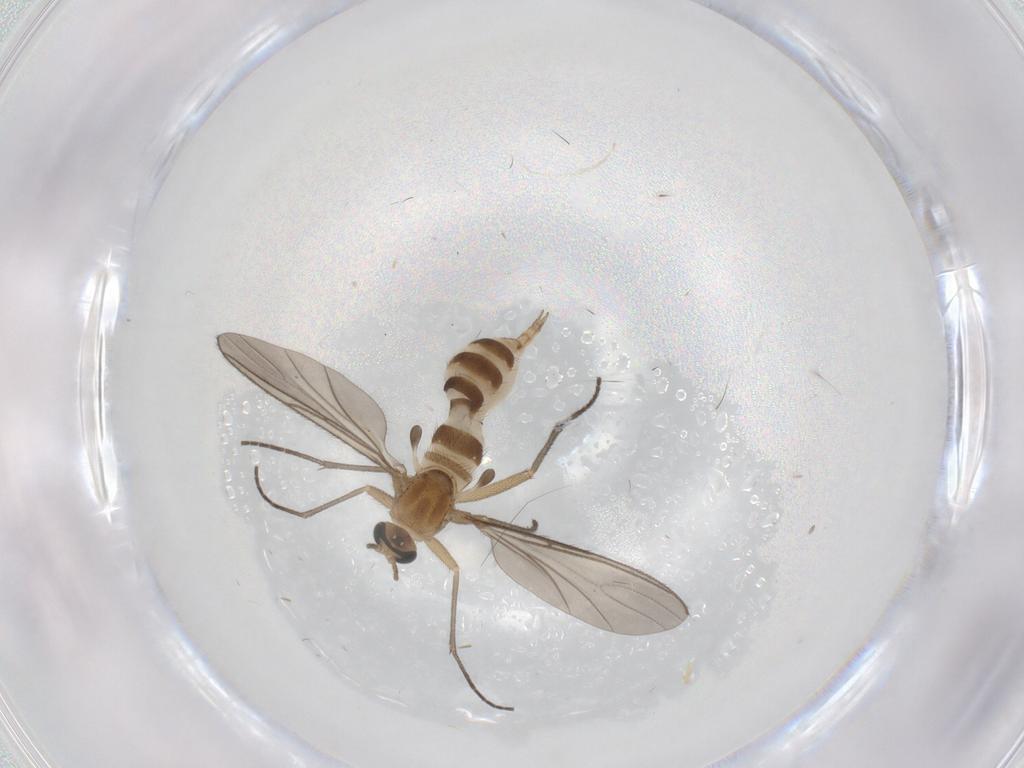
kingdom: Animalia
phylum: Arthropoda
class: Insecta
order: Diptera
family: Sciaridae
